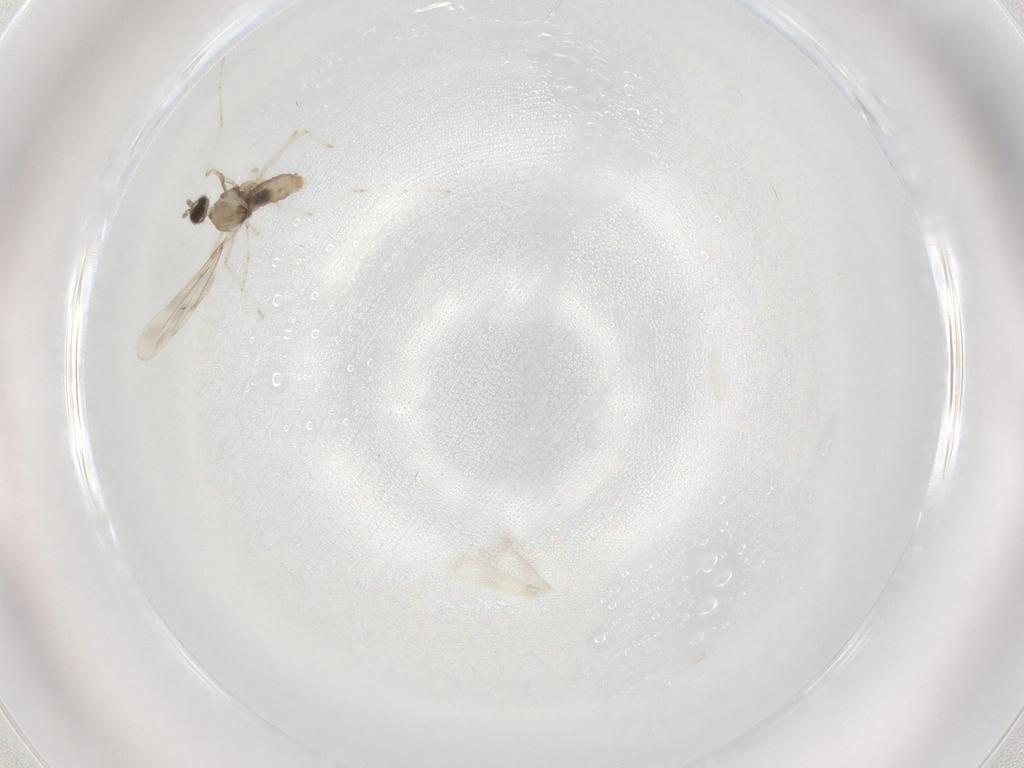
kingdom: Animalia
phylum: Arthropoda
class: Insecta
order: Diptera
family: Cecidomyiidae
